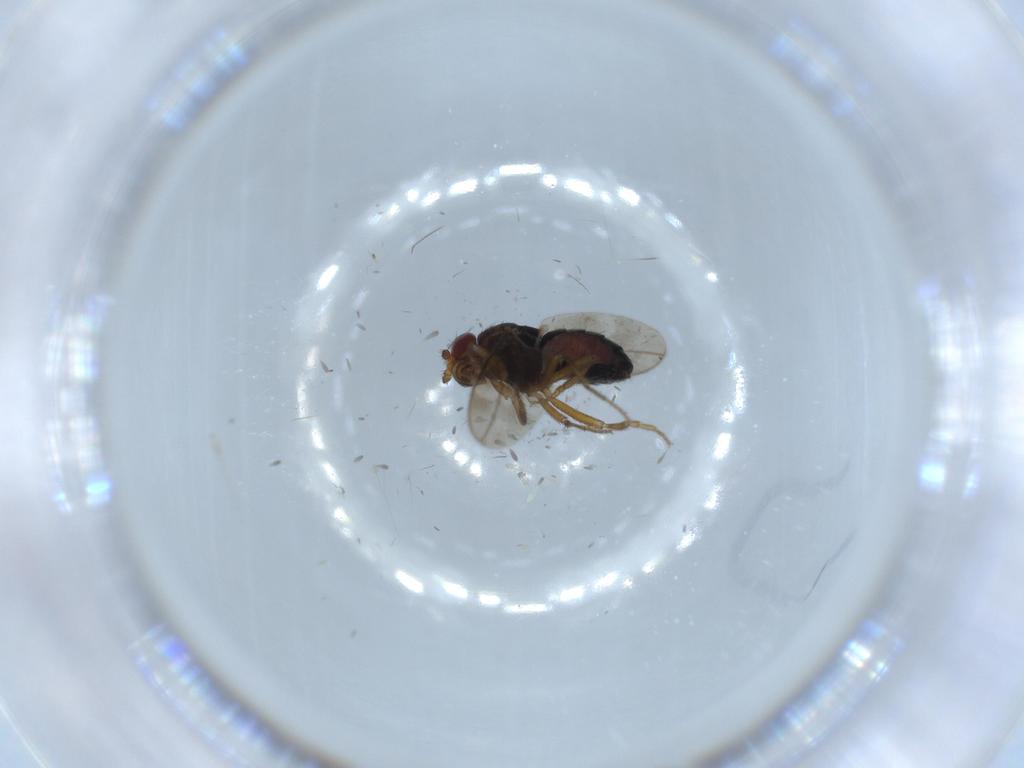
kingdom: Animalia
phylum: Arthropoda
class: Insecta
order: Diptera
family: Sphaeroceridae
